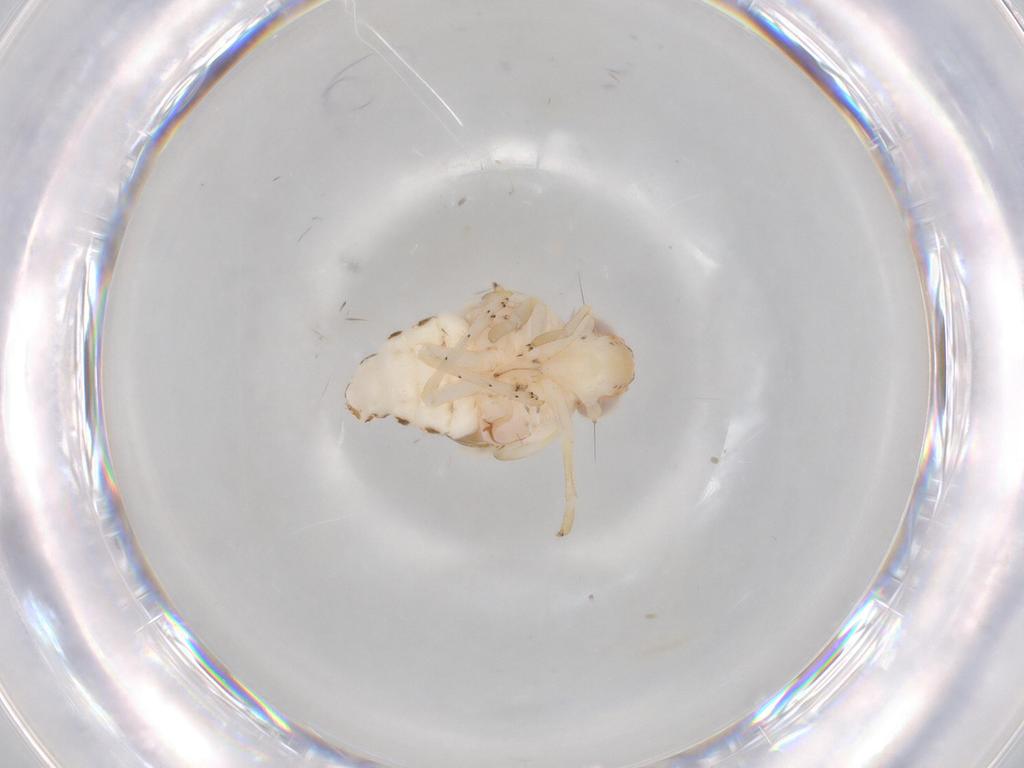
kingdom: Animalia
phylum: Arthropoda
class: Insecta
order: Hemiptera
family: Nogodinidae
